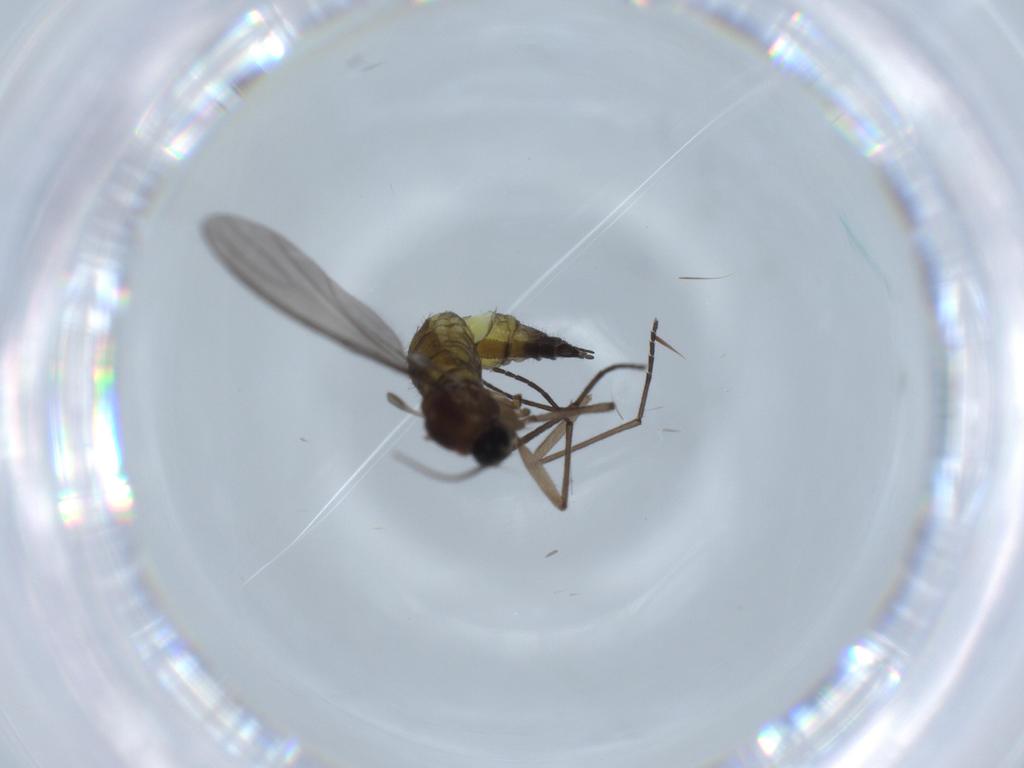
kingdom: Animalia
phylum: Arthropoda
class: Insecta
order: Diptera
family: Sciaridae
